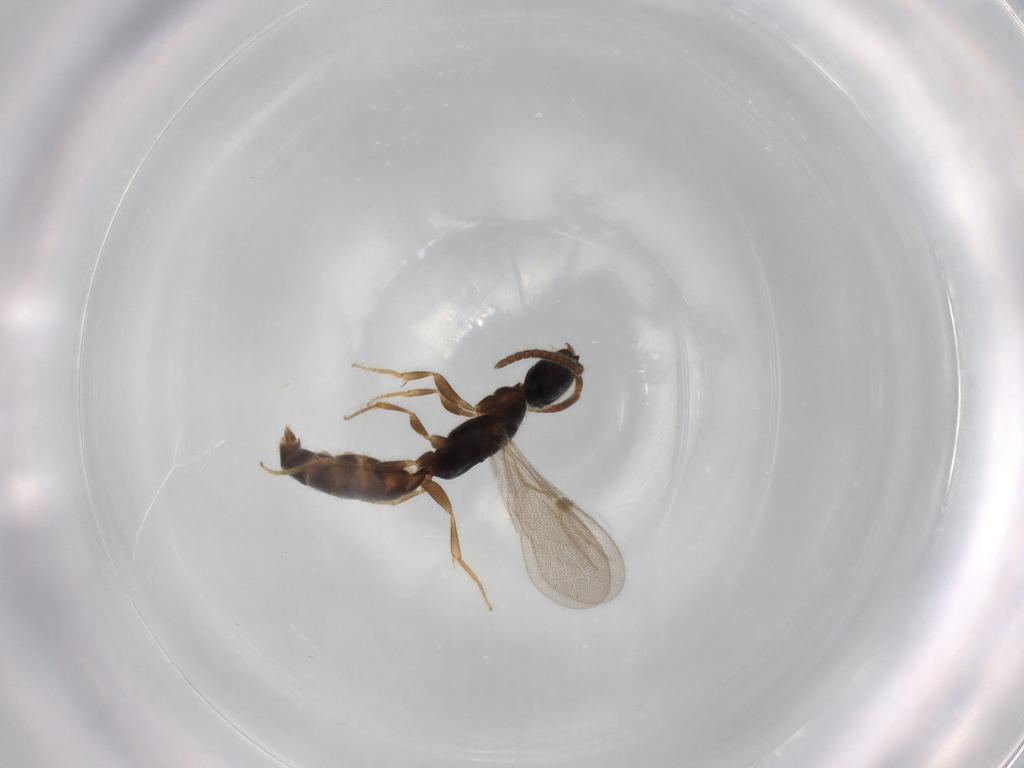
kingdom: Animalia
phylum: Arthropoda
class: Insecta
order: Hymenoptera
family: Bethylidae
